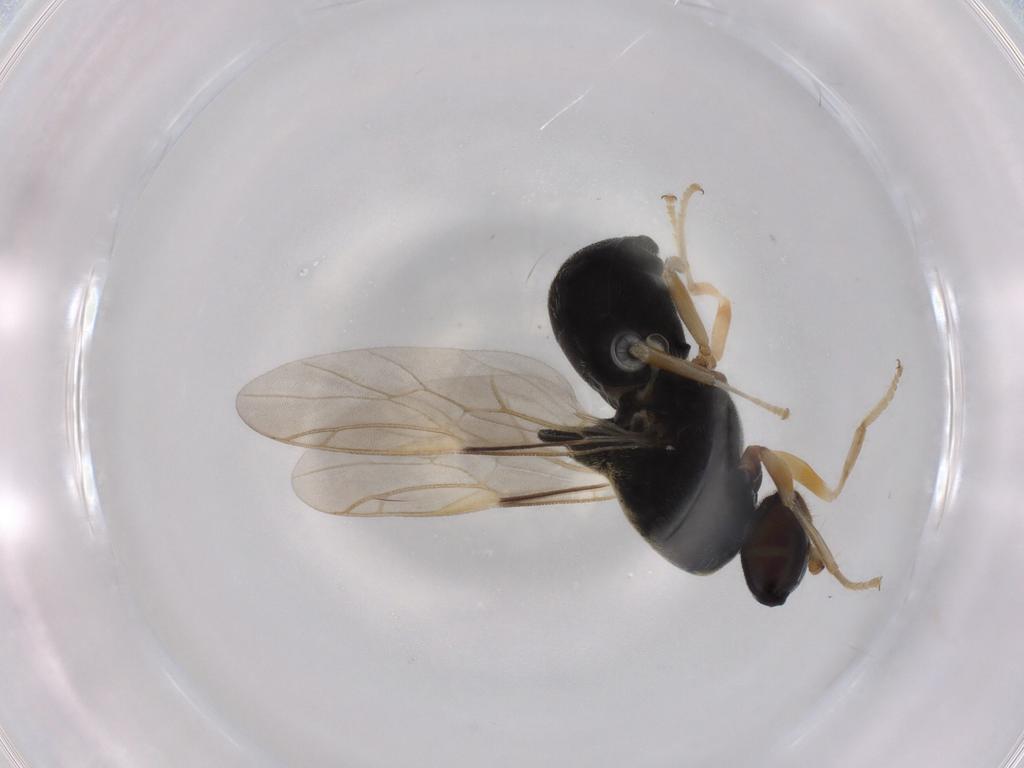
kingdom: Animalia
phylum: Arthropoda
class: Insecta
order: Diptera
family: Stratiomyidae
